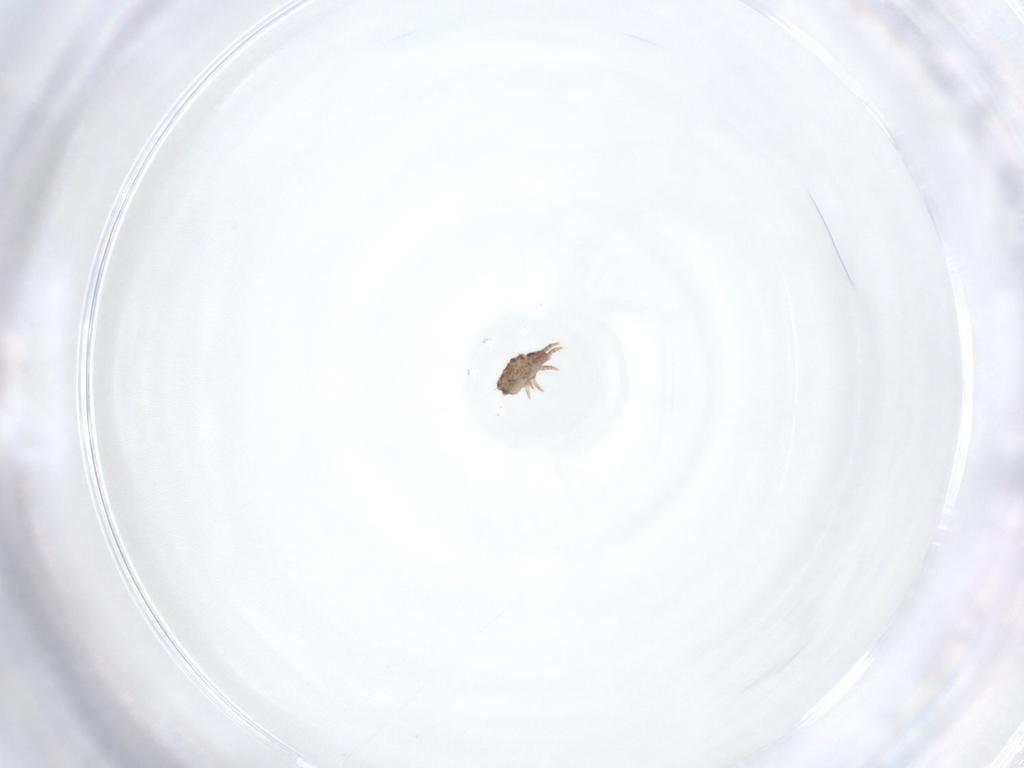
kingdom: Animalia
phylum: Arthropoda
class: Arachnida
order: Sarcoptiformes
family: Crotoniidae
